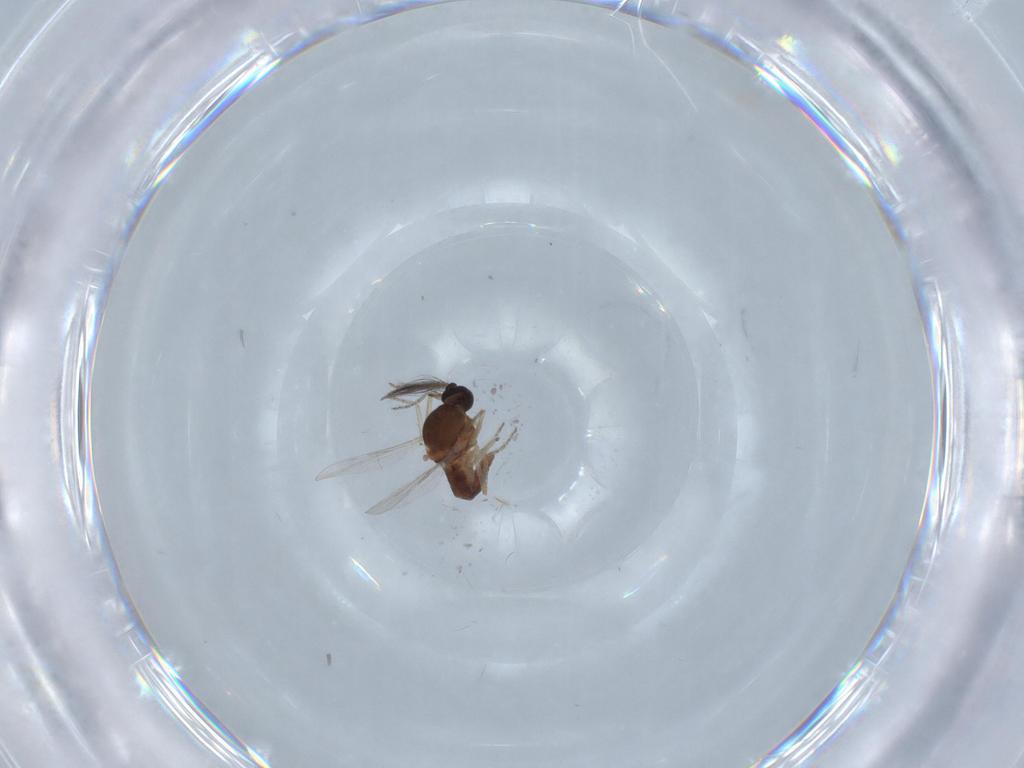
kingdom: Animalia
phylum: Arthropoda
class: Insecta
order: Diptera
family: Ceratopogonidae
